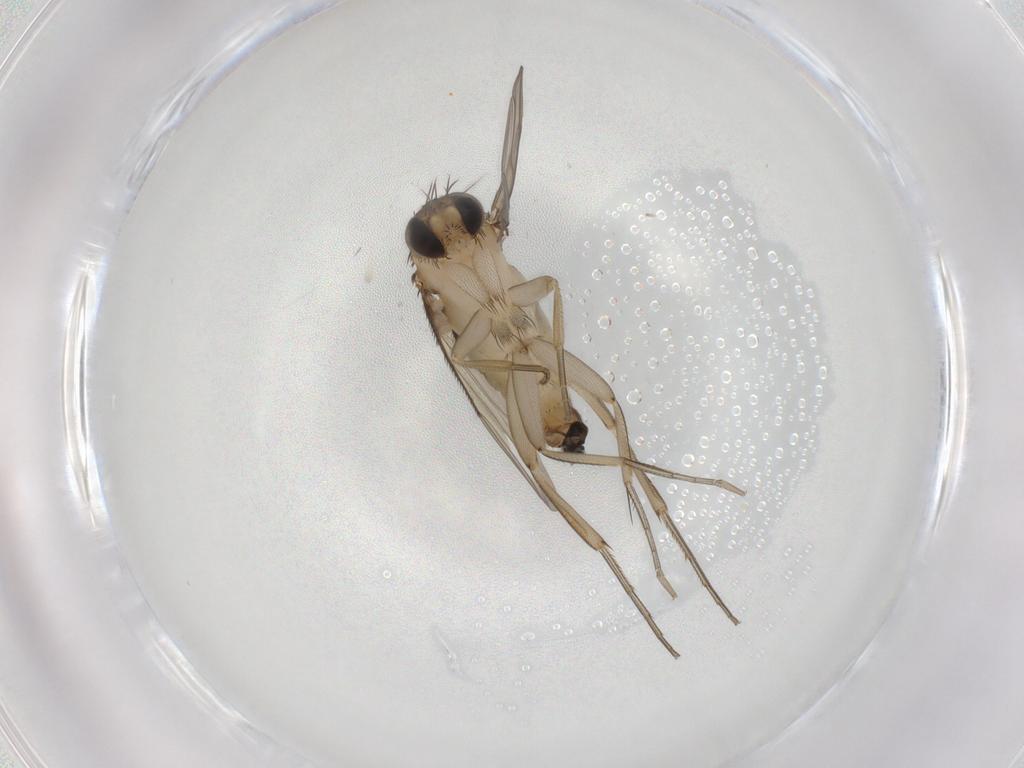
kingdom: Animalia
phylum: Arthropoda
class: Insecta
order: Diptera
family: Phoridae
